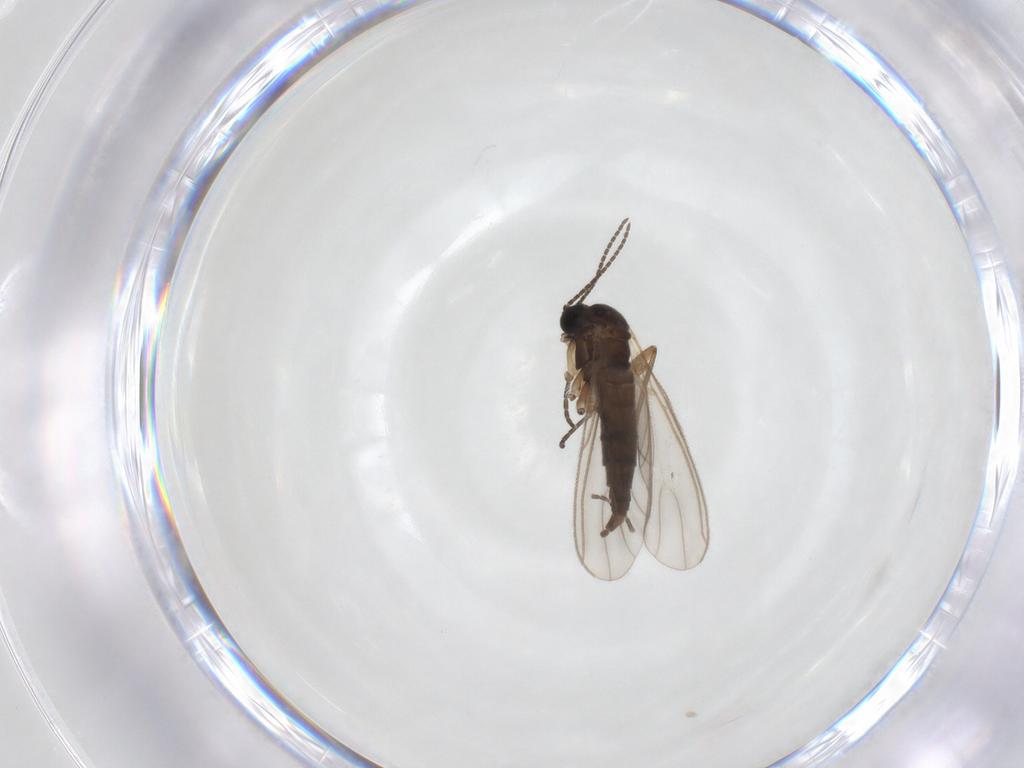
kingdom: Animalia
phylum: Arthropoda
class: Insecta
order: Diptera
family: Sciaridae
